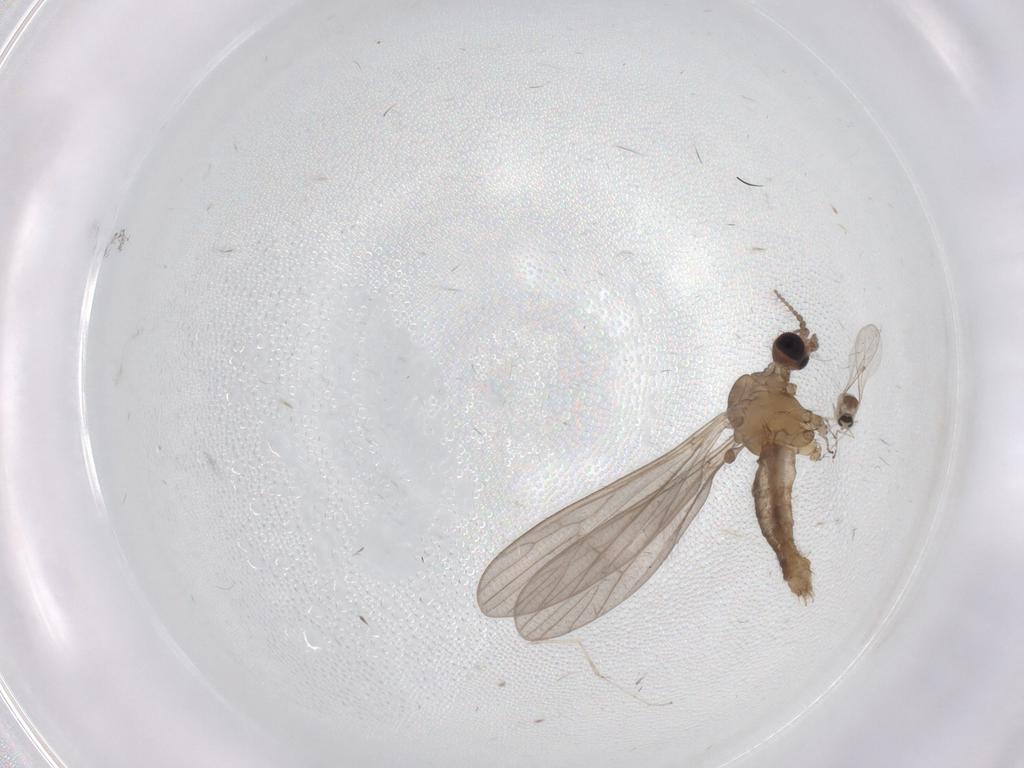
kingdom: Animalia
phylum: Arthropoda
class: Insecta
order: Diptera
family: Limoniidae
